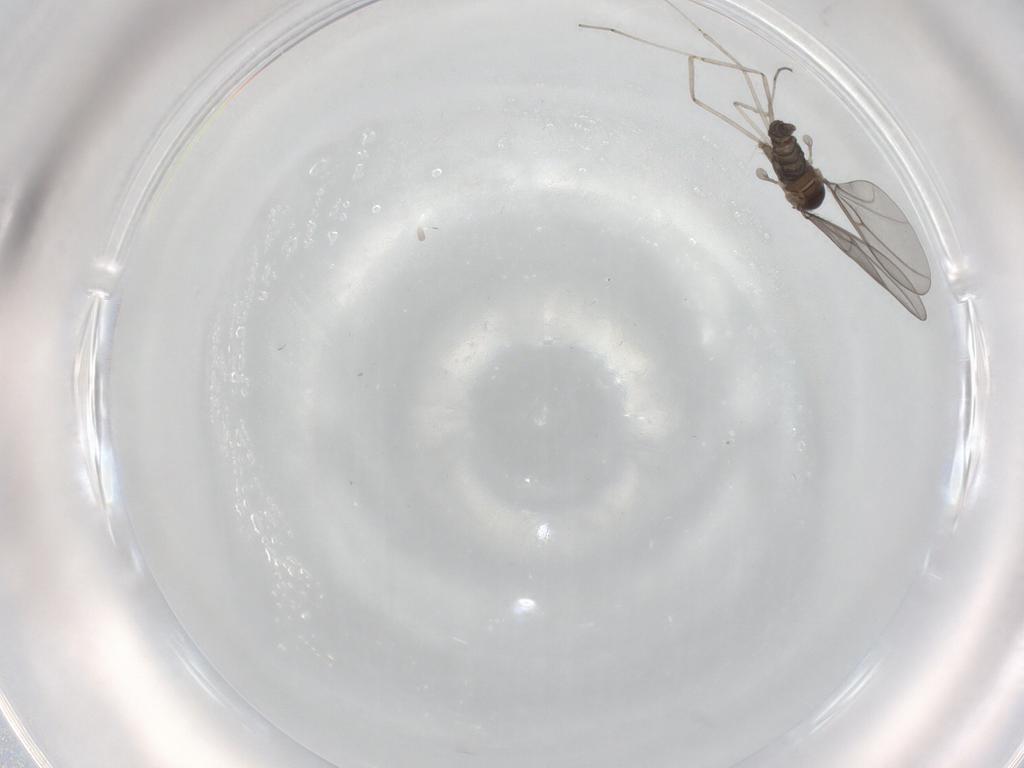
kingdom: Animalia
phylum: Arthropoda
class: Insecta
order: Diptera
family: Cecidomyiidae
